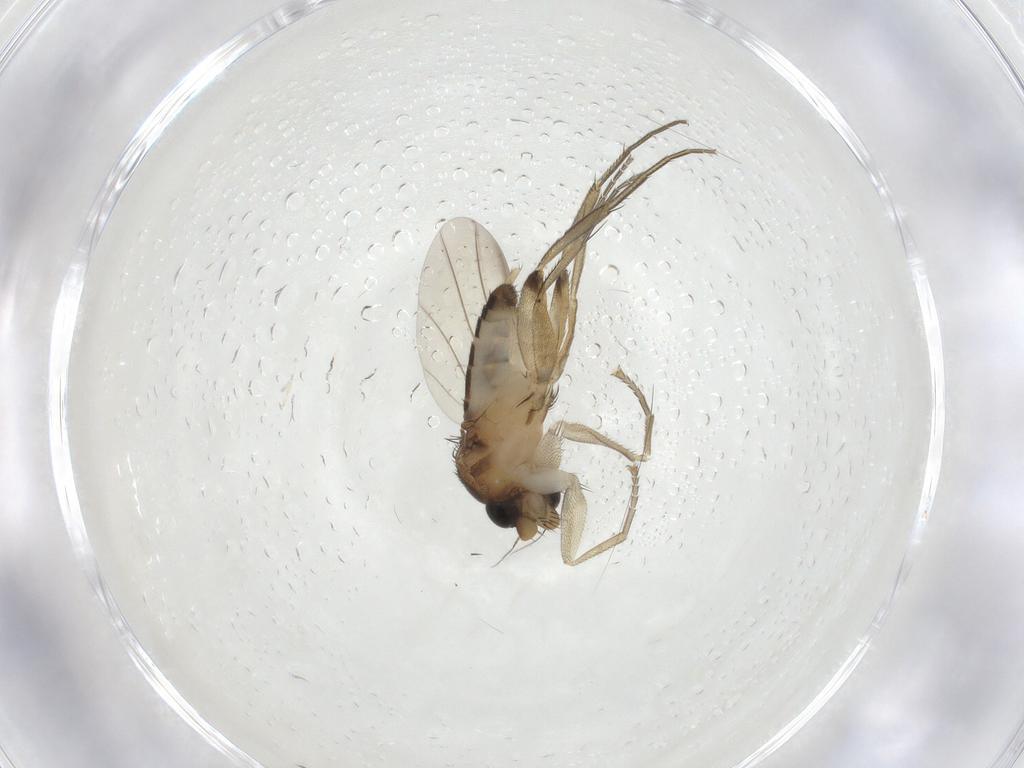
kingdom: Animalia
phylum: Arthropoda
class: Insecta
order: Diptera
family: Phoridae
